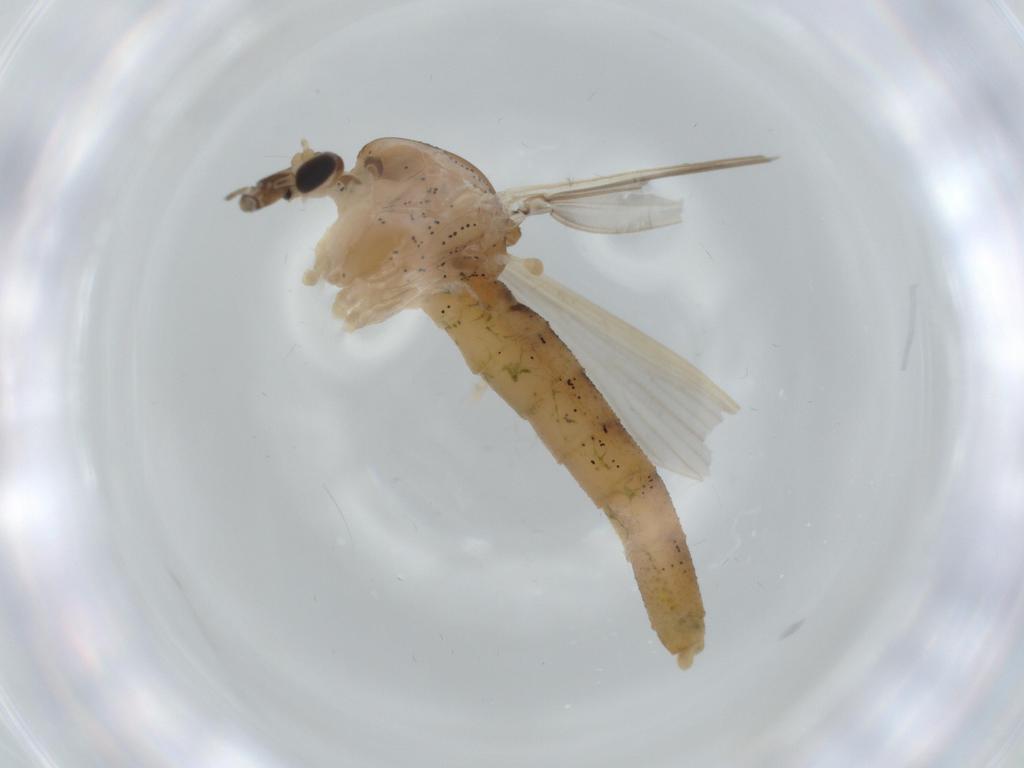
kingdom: Animalia
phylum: Arthropoda
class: Insecta
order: Diptera
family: Chaoboridae
